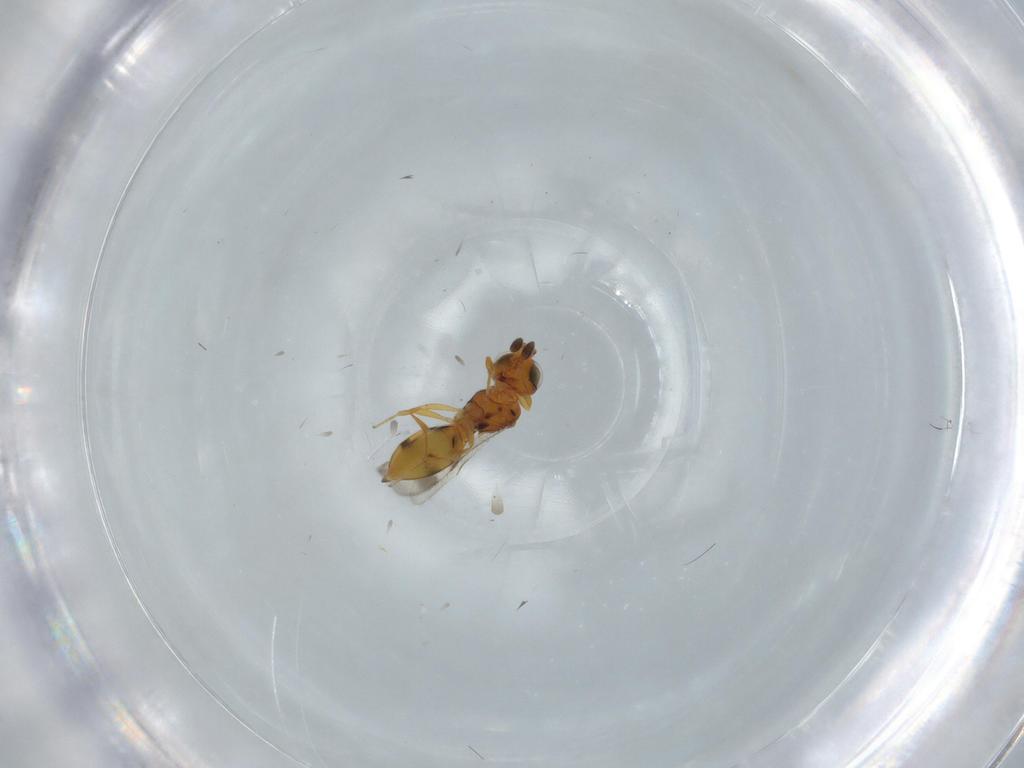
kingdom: Animalia
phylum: Arthropoda
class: Insecta
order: Hymenoptera
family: Scelionidae
